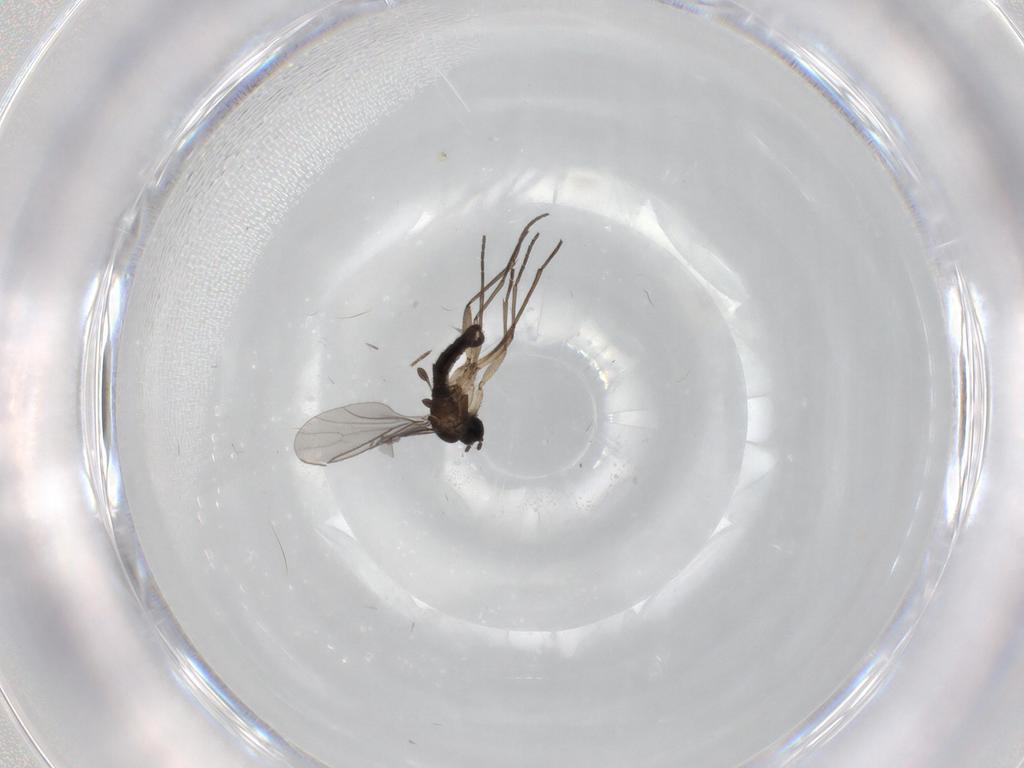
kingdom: Animalia
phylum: Arthropoda
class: Insecta
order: Diptera
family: Sciaridae
